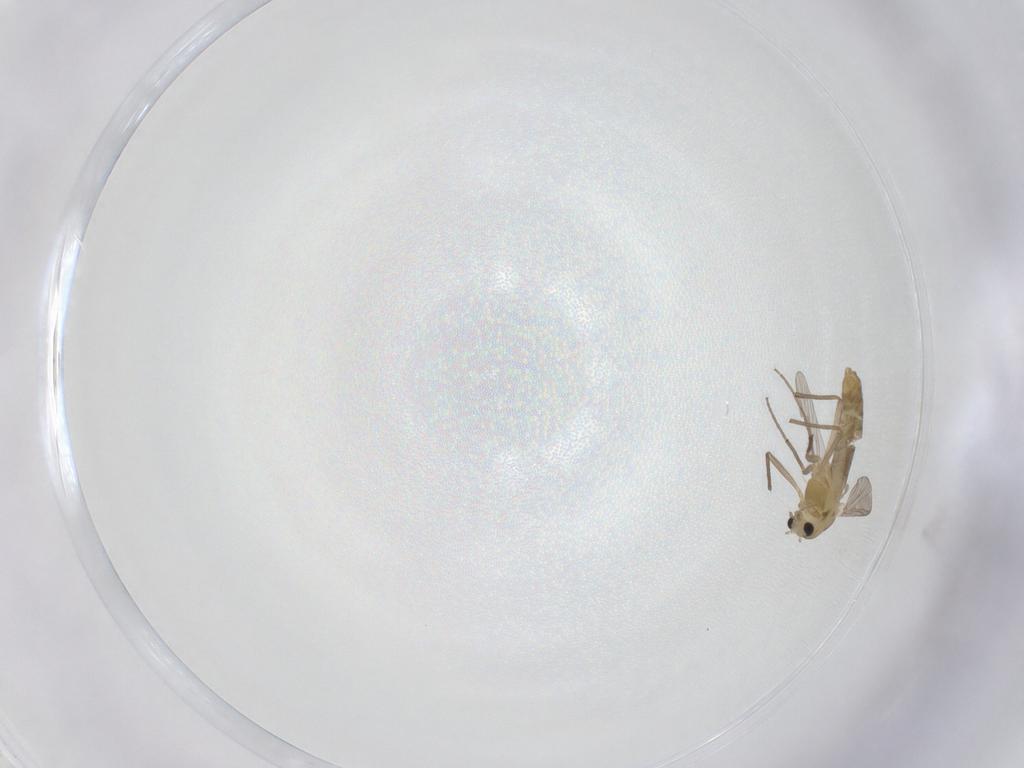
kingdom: Animalia
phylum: Arthropoda
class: Insecta
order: Diptera
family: Chironomidae
